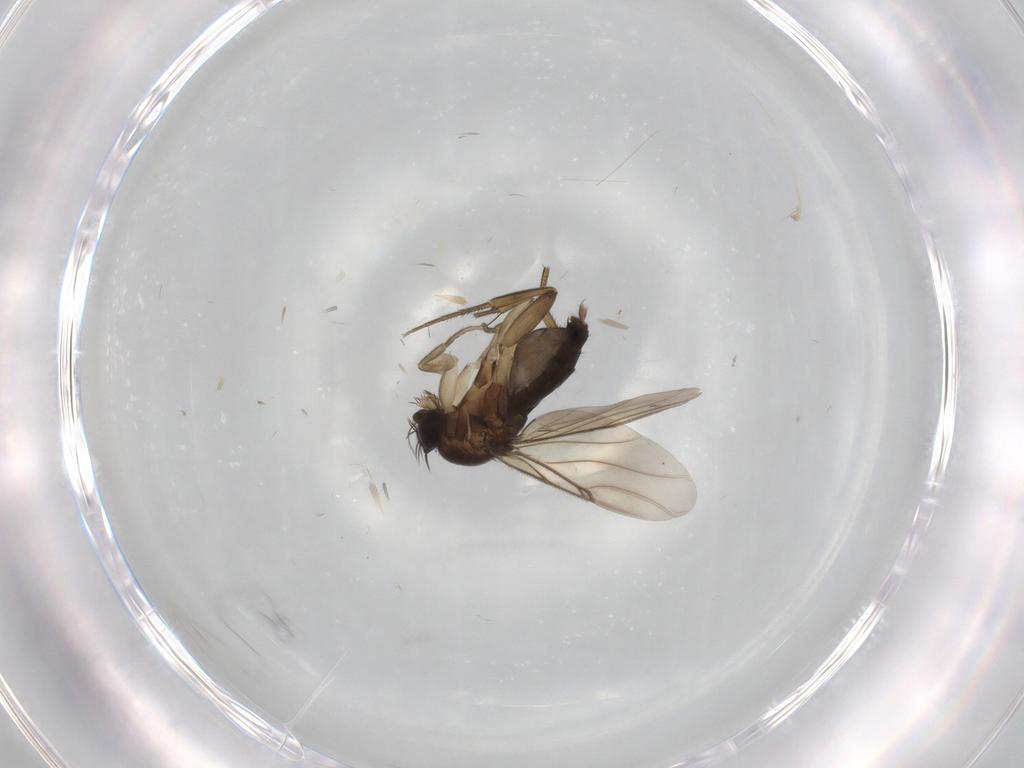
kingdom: Animalia
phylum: Arthropoda
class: Insecta
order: Diptera
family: Phoridae
